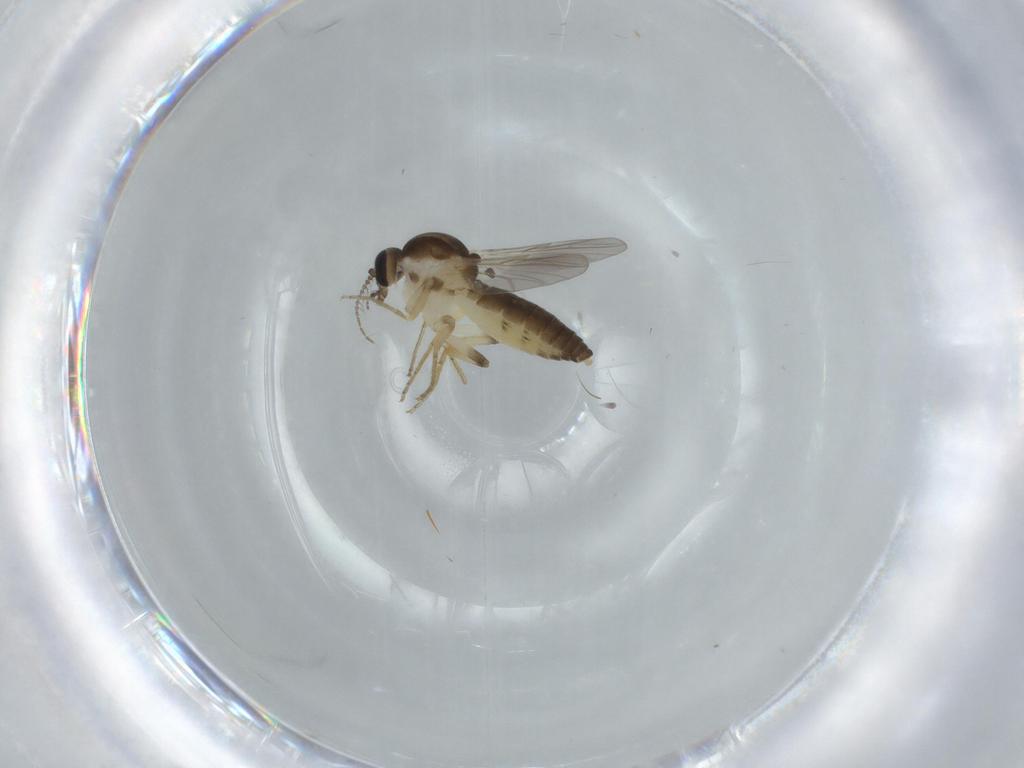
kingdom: Animalia
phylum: Arthropoda
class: Insecta
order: Diptera
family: Ceratopogonidae
